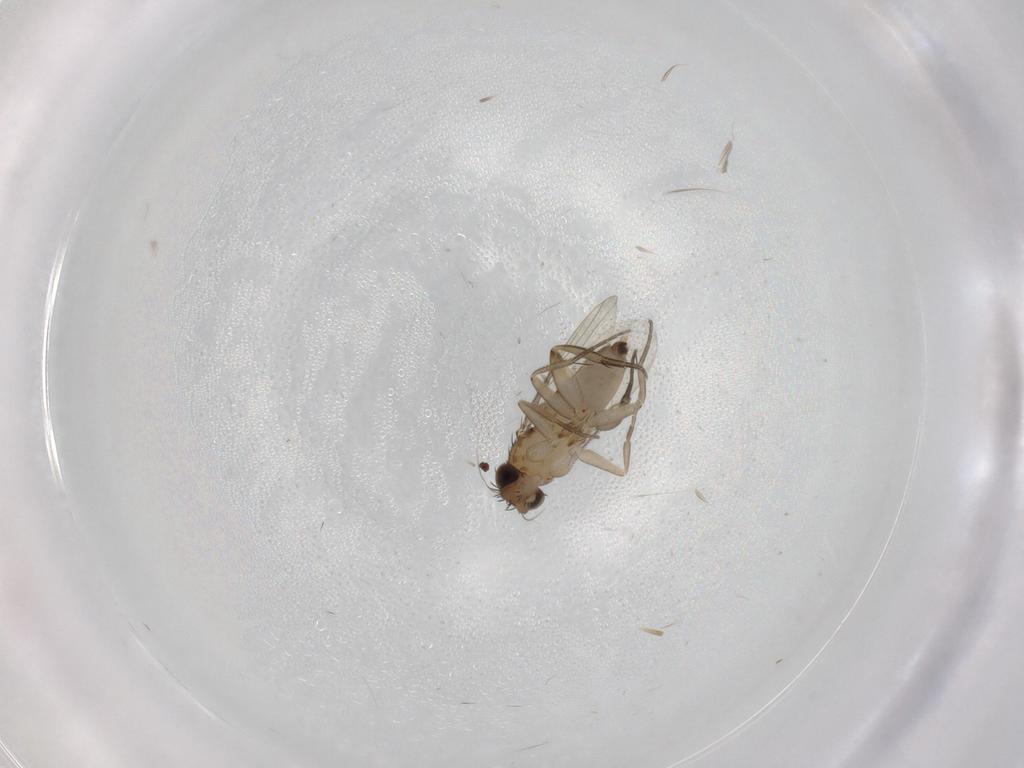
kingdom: Animalia
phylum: Arthropoda
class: Insecta
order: Diptera
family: Phoridae
